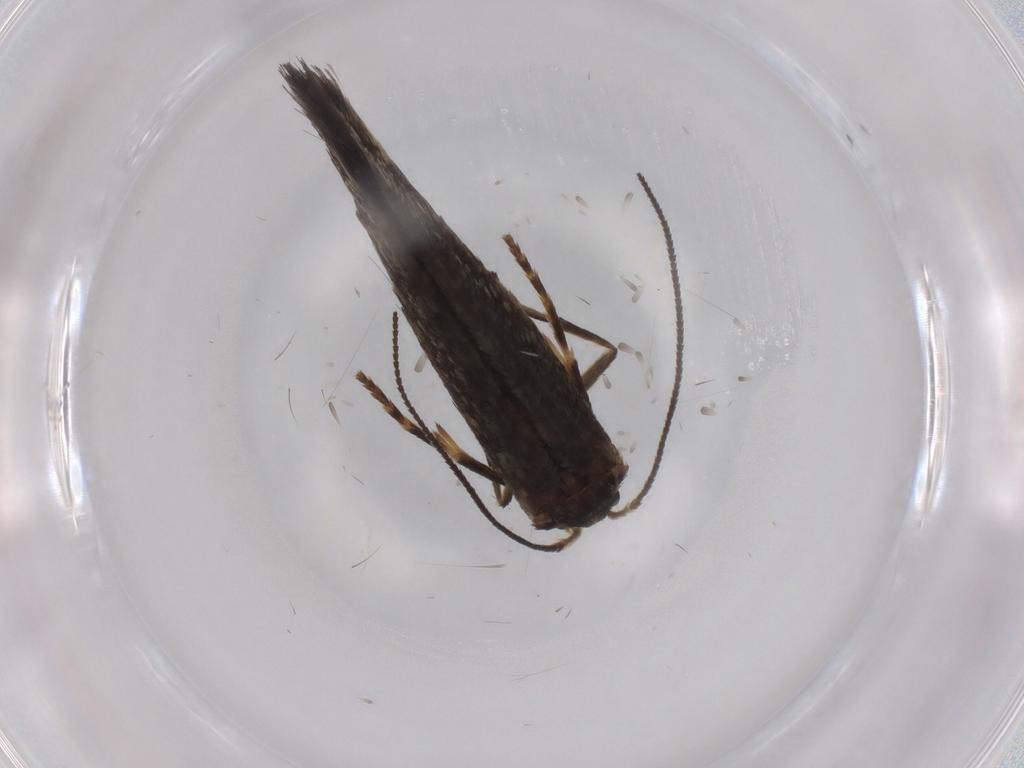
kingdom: Animalia
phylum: Arthropoda
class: Insecta
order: Lepidoptera
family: Nepticulidae
